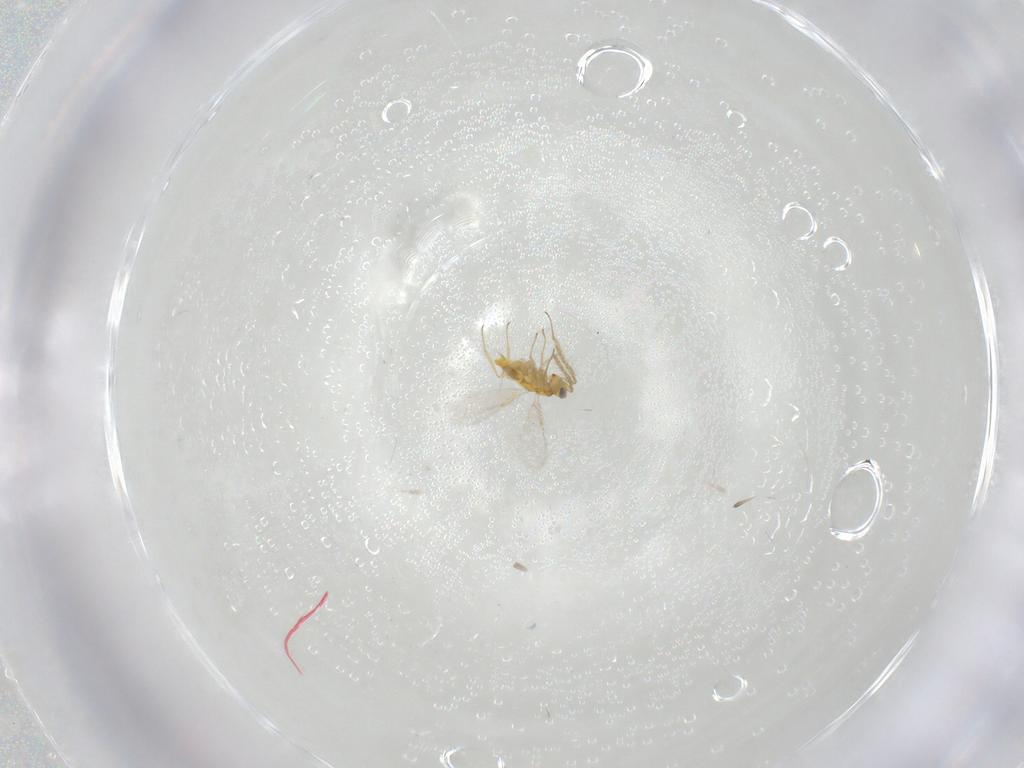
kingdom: Animalia
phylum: Arthropoda
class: Insecta
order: Hymenoptera
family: Aphelinidae
